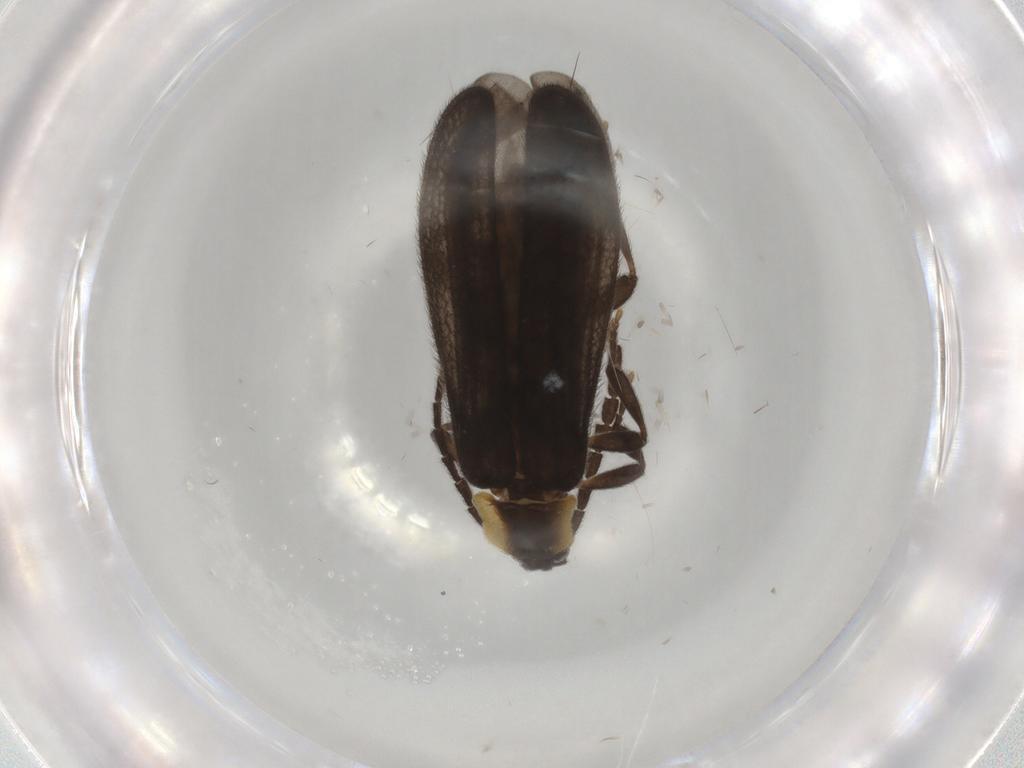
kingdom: Animalia
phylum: Arthropoda
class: Insecta
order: Coleoptera
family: Lycidae
